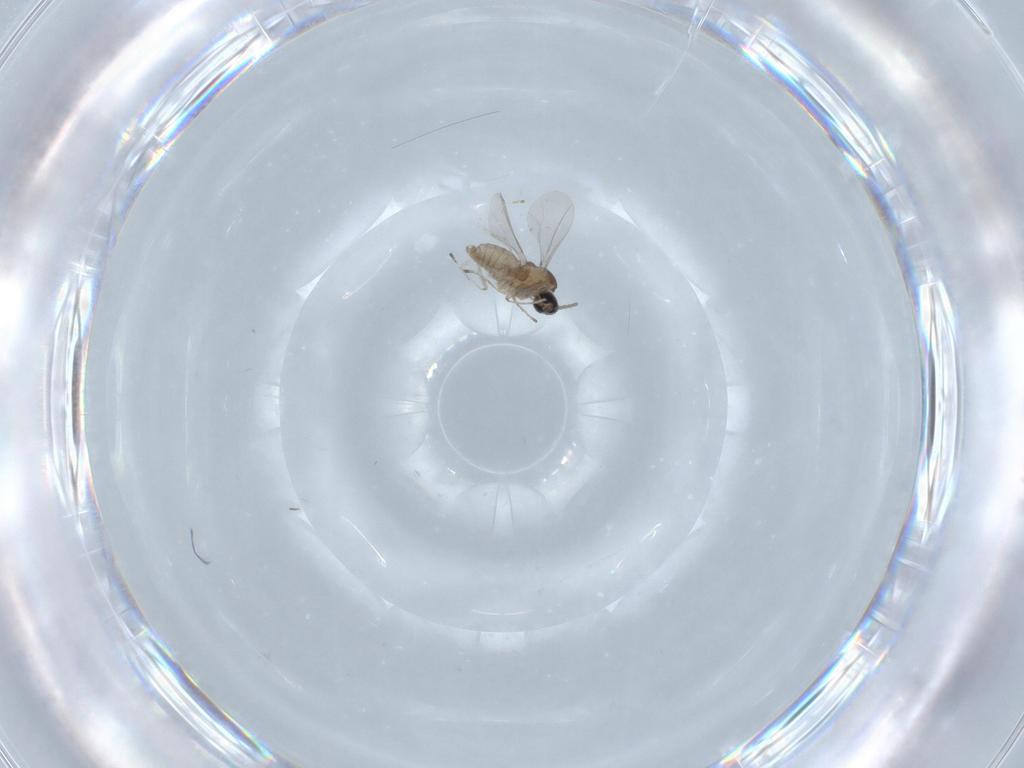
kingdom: Animalia
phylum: Arthropoda
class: Insecta
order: Diptera
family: Cecidomyiidae
